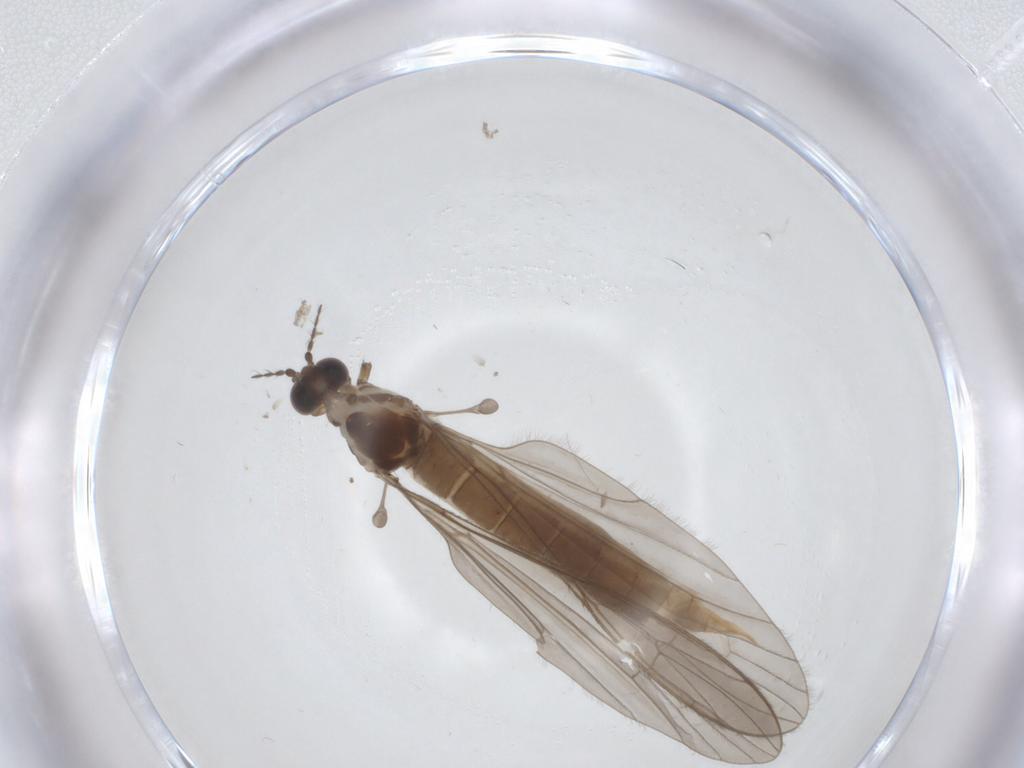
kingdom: Animalia
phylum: Arthropoda
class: Insecta
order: Diptera
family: Limoniidae
